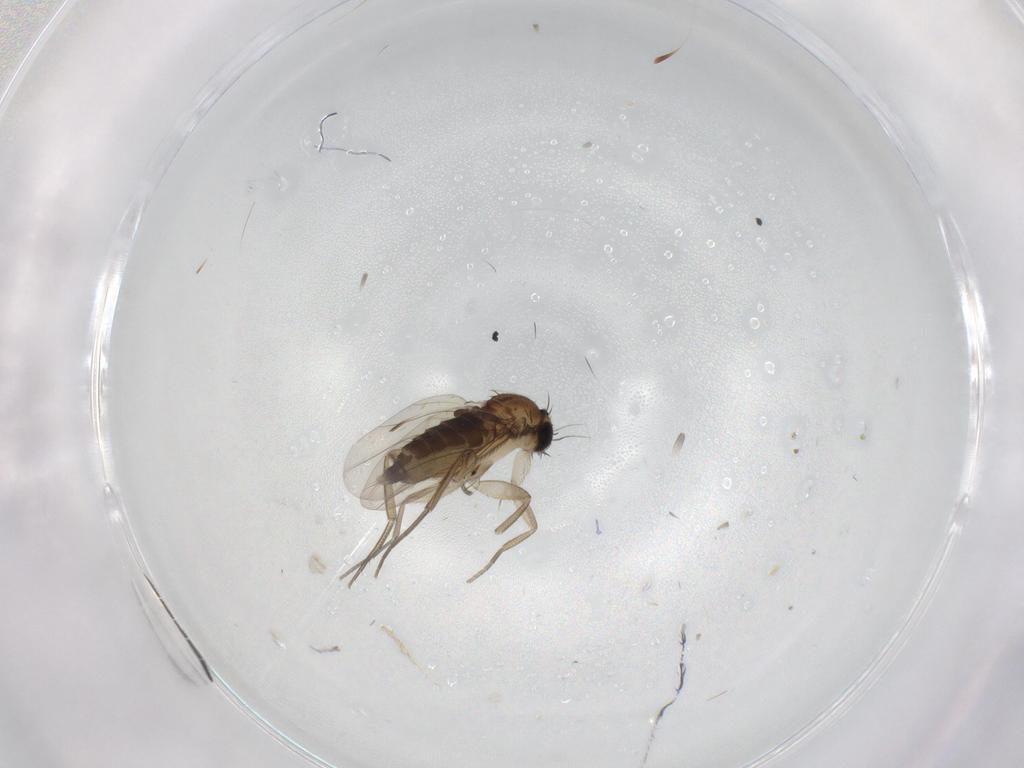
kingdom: Animalia
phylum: Arthropoda
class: Insecta
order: Diptera
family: Phoridae
